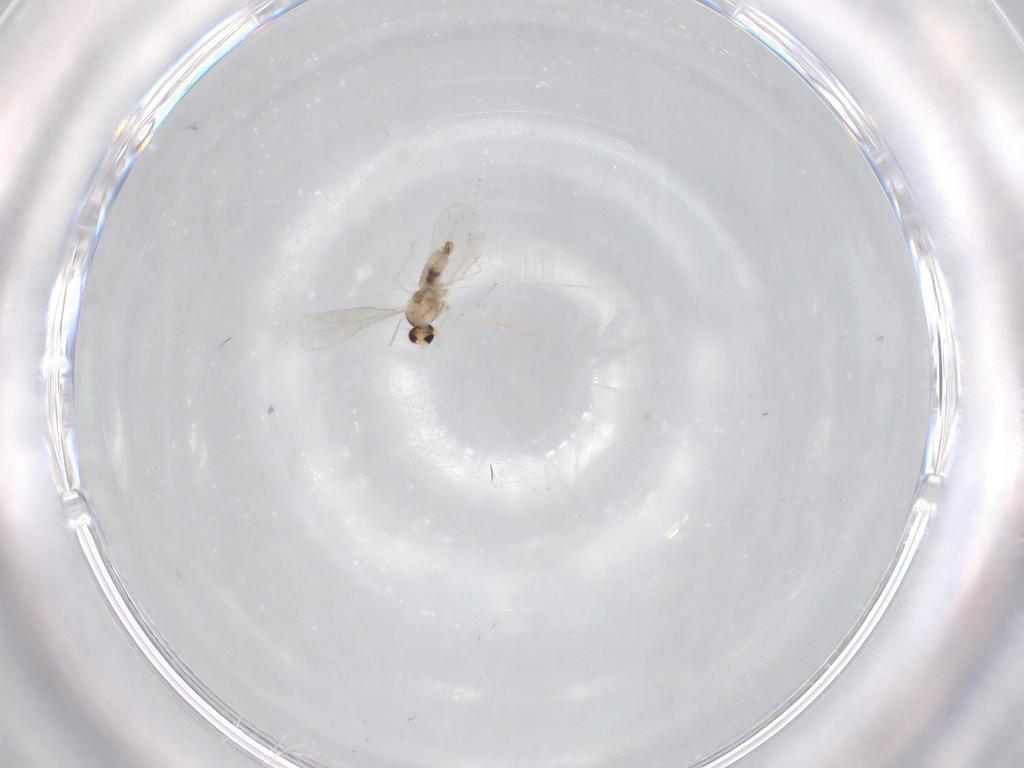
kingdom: Animalia
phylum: Arthropoda
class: Insecta
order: Diptera
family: Cecidomyiidae
